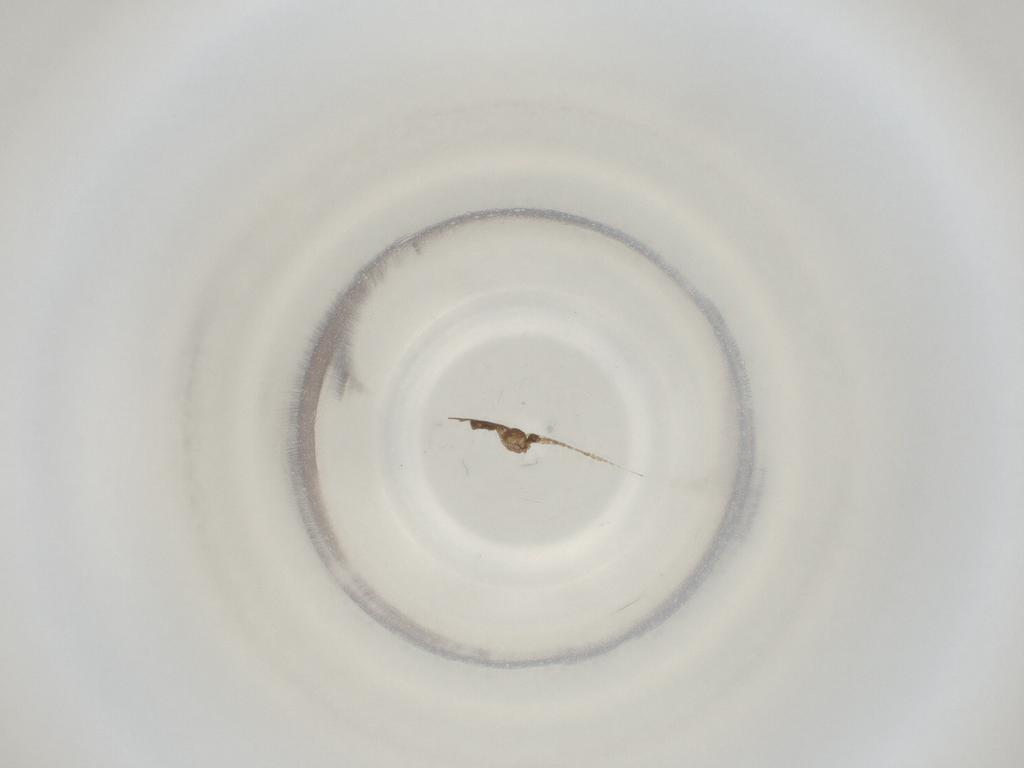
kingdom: Animalia
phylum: Arthropoda
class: Insecta
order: Diptera
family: Cecidomyiidae
